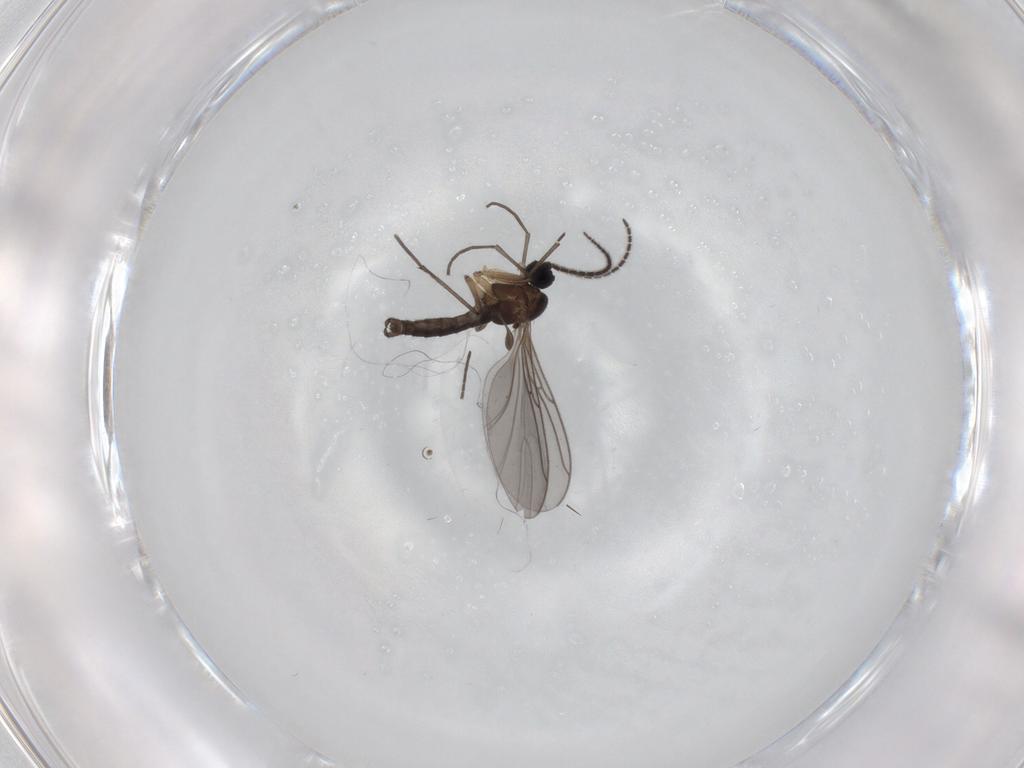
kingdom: Animalia
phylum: Arthropoda
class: Insecta
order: Diptera
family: Sciaridae
